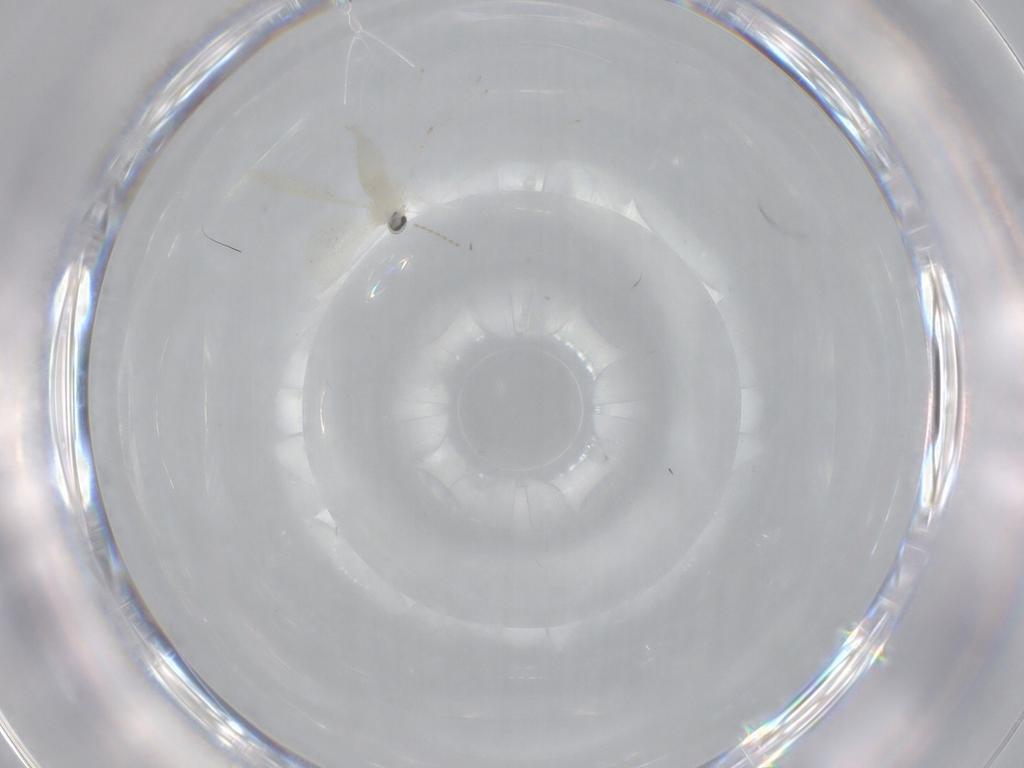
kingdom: Animalia
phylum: Arthropoda
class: Insecta
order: Diptera
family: Cecidomyiidae
